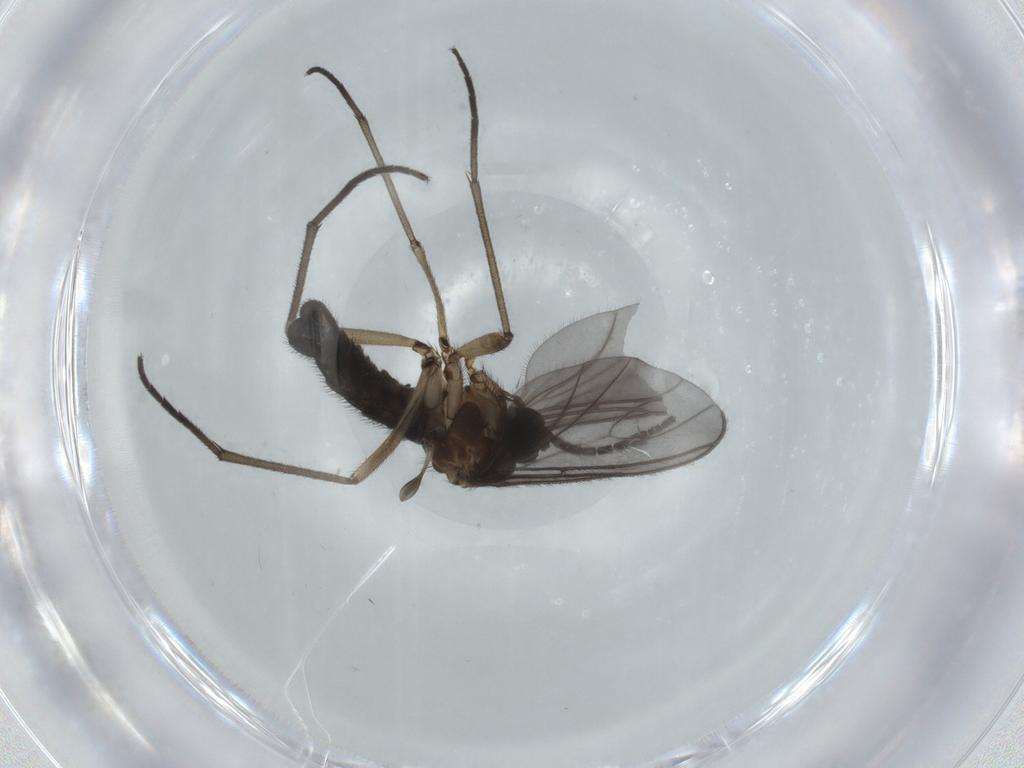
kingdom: Animalia
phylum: Arthropoda
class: Insecta
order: Diptera
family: Sciaridae
